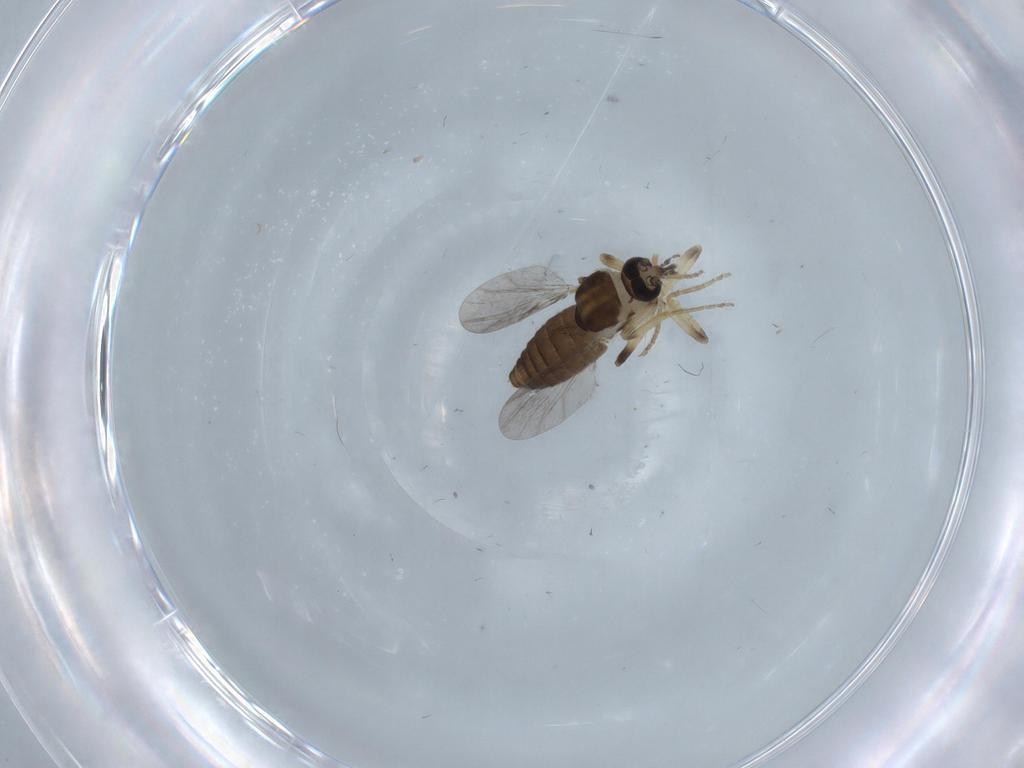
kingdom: Animalia
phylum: Arthropoda
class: Insecta
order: Diptera
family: Ceratopogonidae
